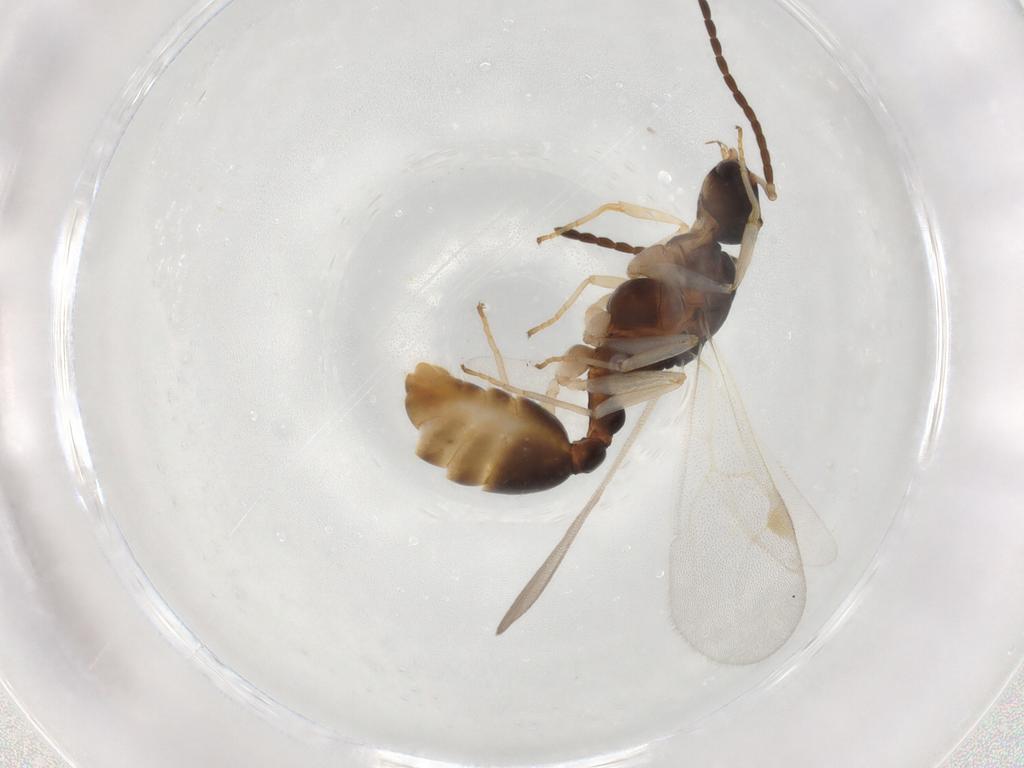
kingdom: Animalia
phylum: Arthropoda
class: Insecta
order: Hymenoptera
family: Formicidae
